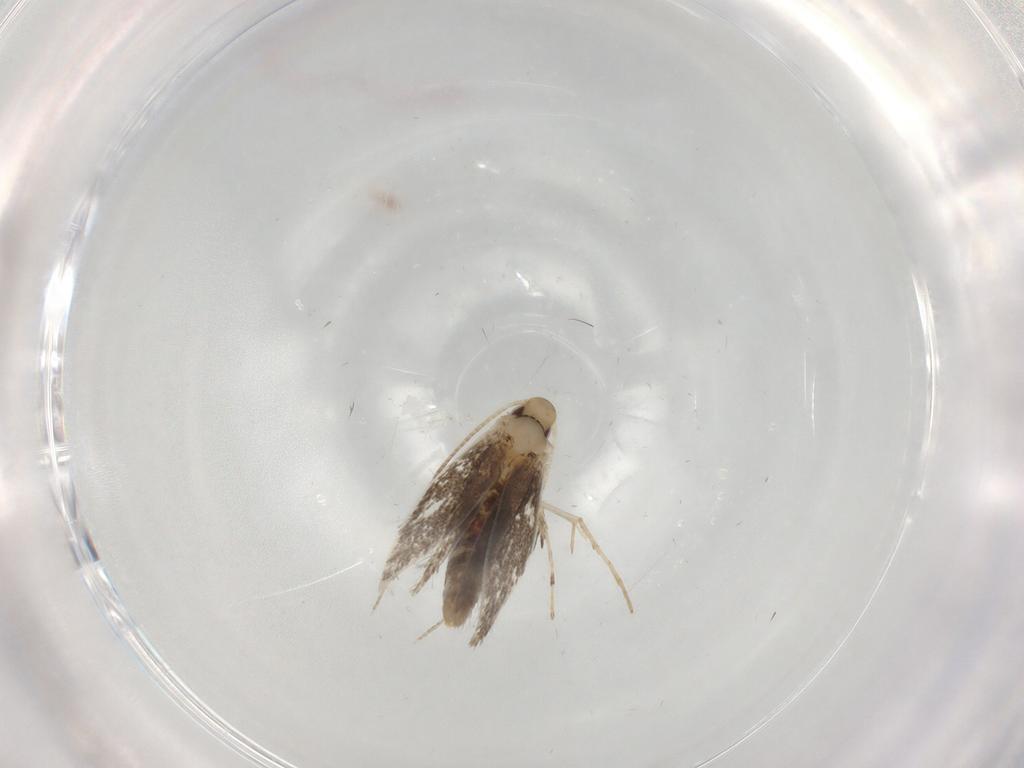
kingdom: Animalia
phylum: Arthropoda
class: Insecta
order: Lepidoptera
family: Gracillariidae
